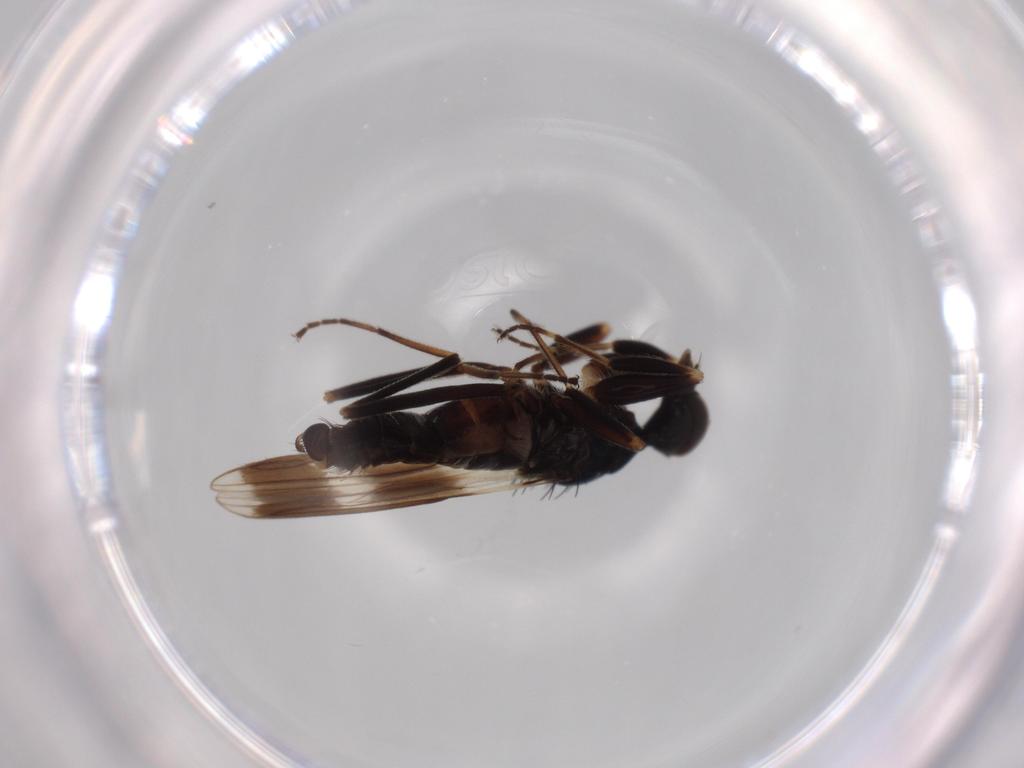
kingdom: Animalia
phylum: Arthropoda
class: Insecta
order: Diptera
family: Hybotidae
